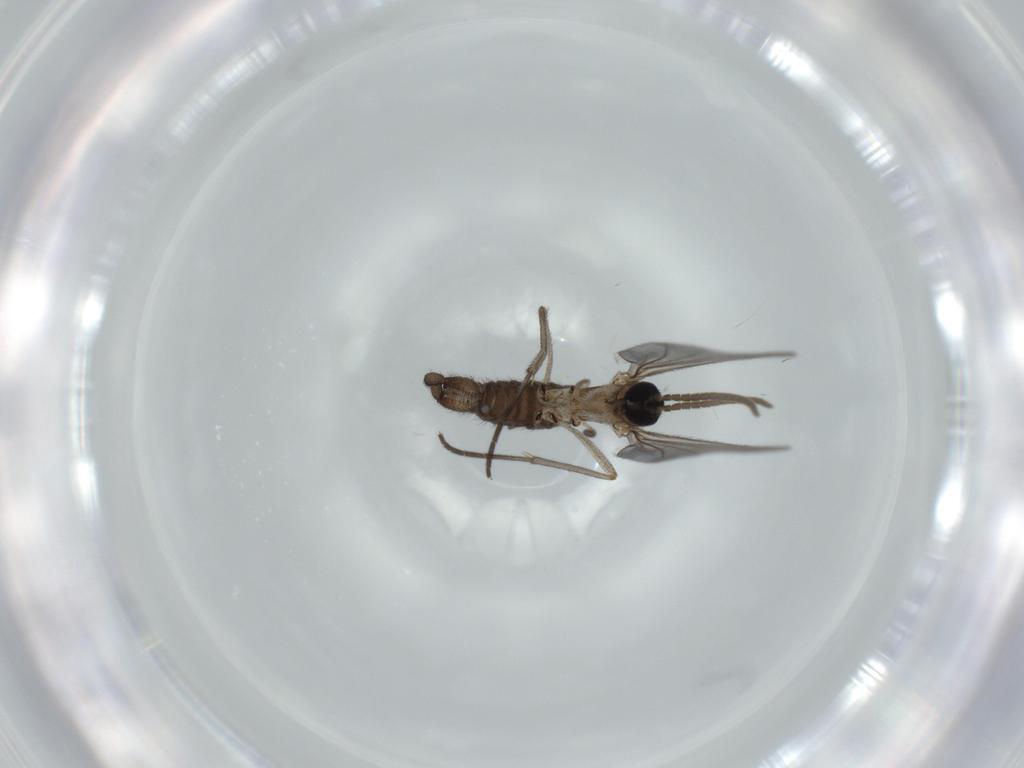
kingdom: Animalia
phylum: Arthropoda
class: Insecta
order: Diptera
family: Sciaridae
